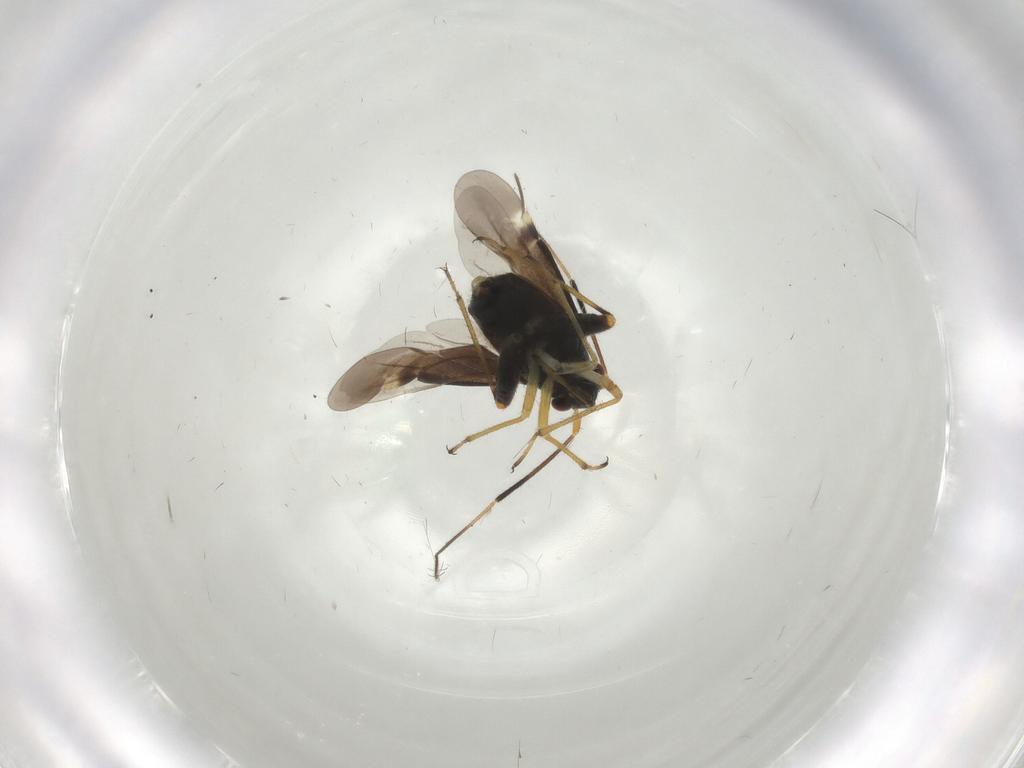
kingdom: Animalia
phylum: Arthropoda
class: Insecta
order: Hemiptera
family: Miridae
